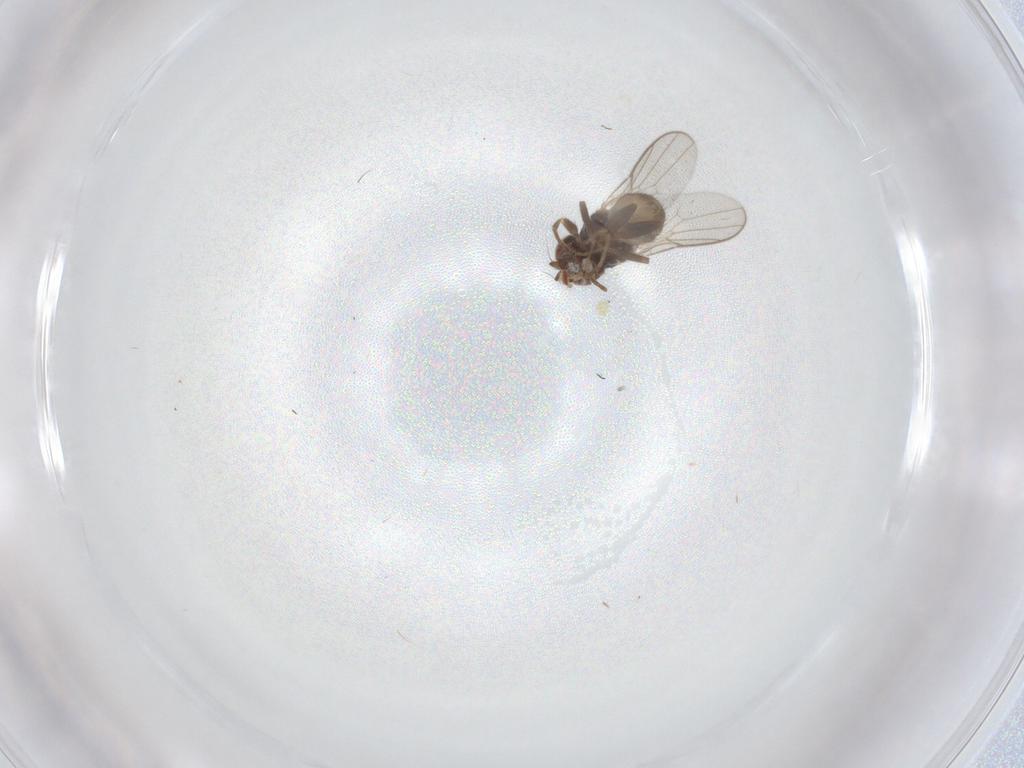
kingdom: Animalia
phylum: Arthropoda
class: Insecta
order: Diptera
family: Chloropidae
